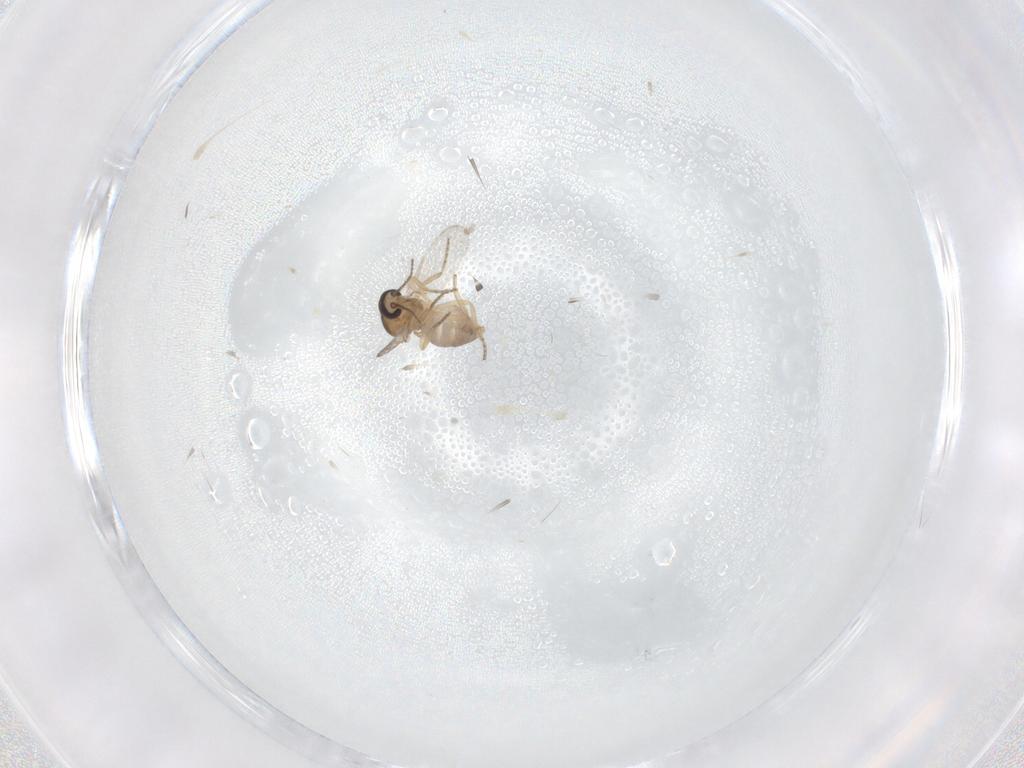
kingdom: Animalia
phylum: Arthropoda
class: Insecta
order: Diptera
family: Ceratopogonidae
